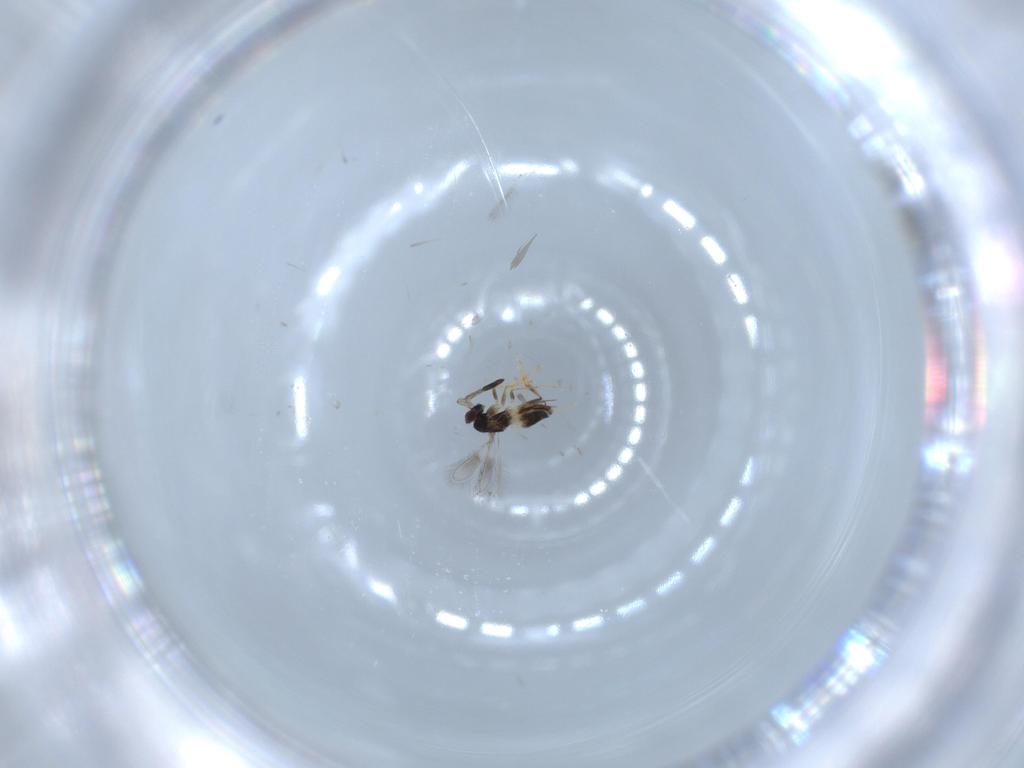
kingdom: Animalia
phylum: Arthropoda
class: Insecta
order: Hymenoptera
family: Mymaridae
